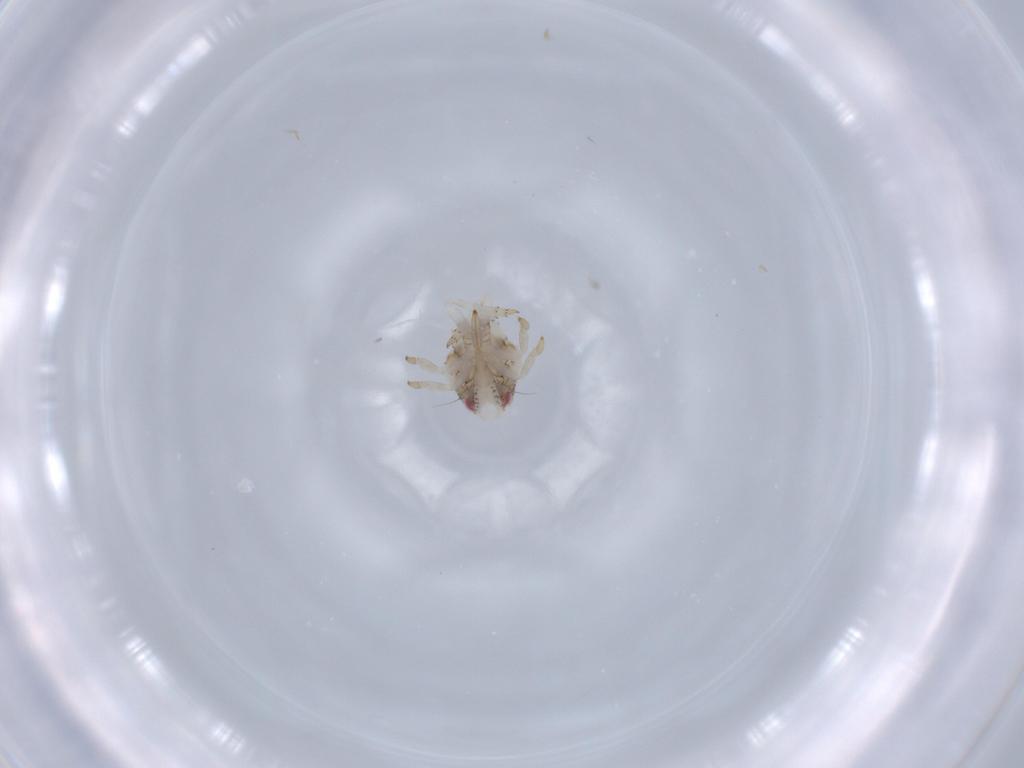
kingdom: Animalia
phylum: Arthropoda
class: Insecta
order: Hemiptera
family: Acanaloniidae
